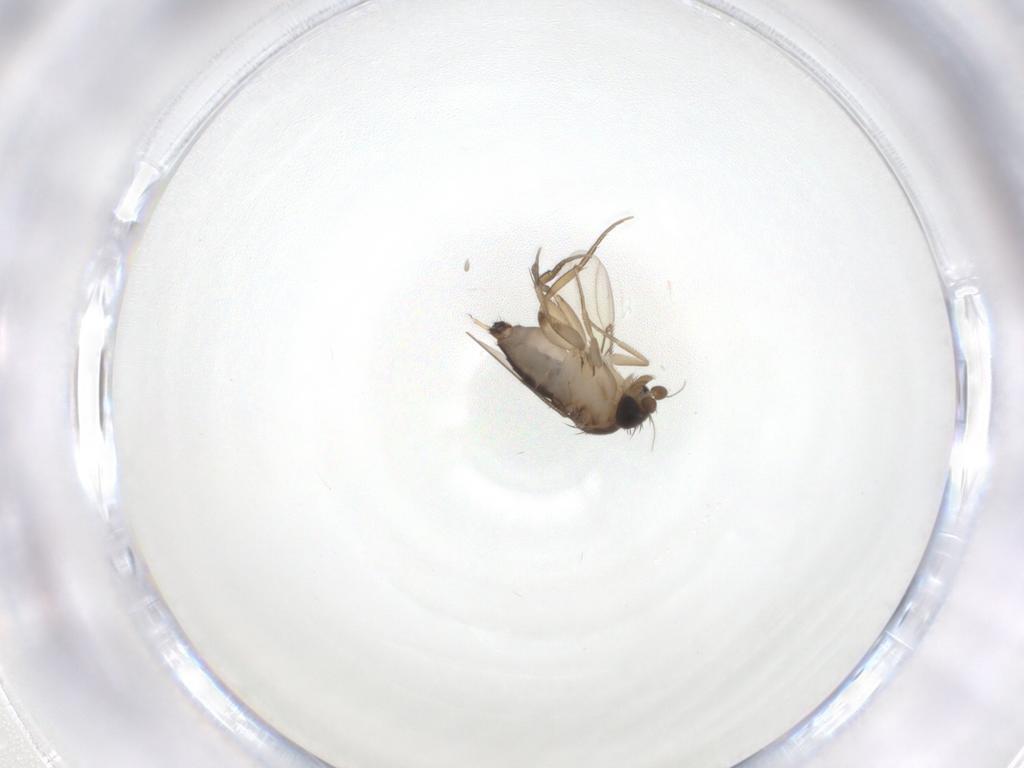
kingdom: Animalia
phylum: Arthropoda
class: Insecta
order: Diptera
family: Phoridae
